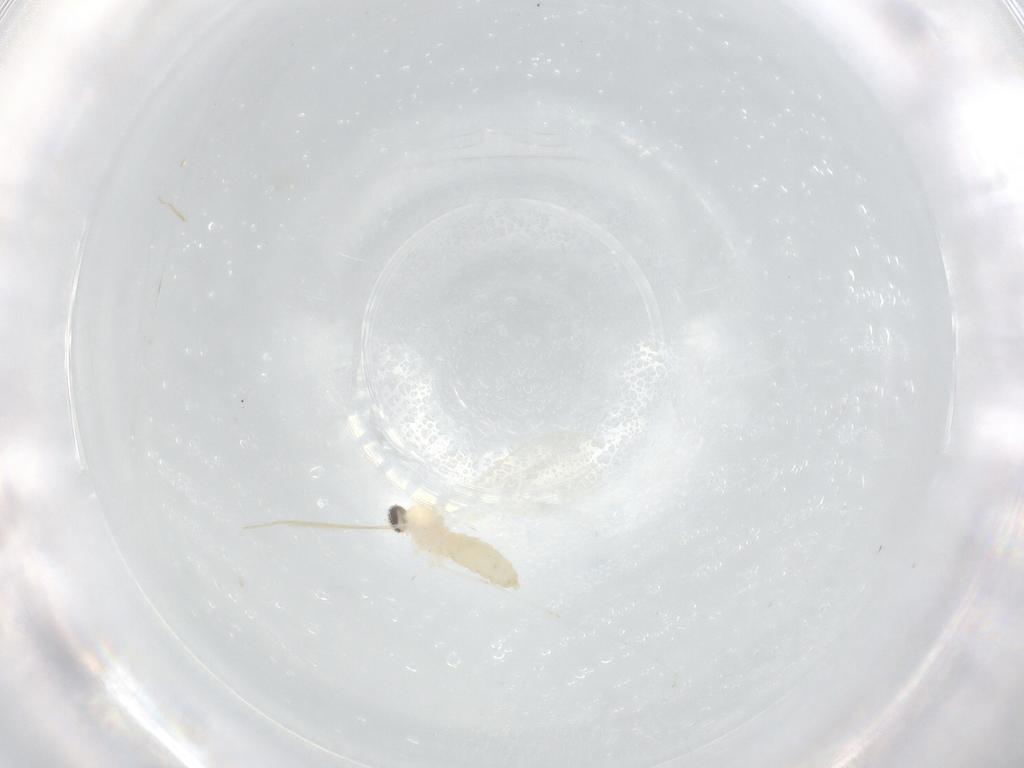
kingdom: Animalia
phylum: Arthropoda
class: Insecta
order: Diptera
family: Cecidomyiidae
